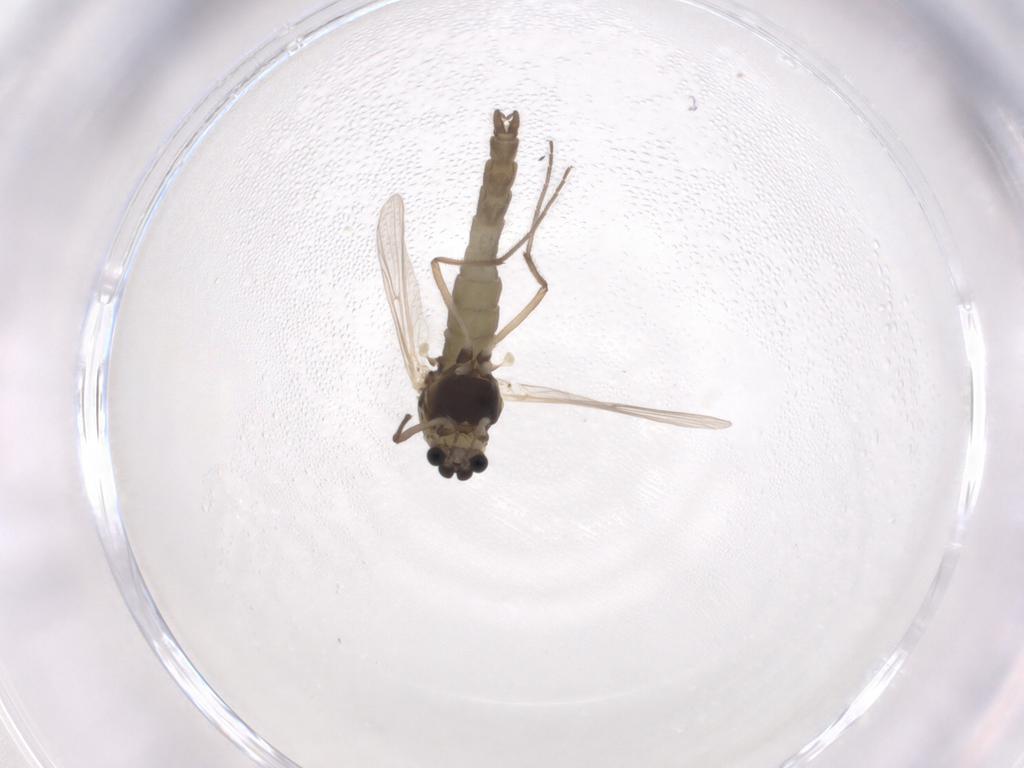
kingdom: Animalia
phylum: Arthropoda
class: Insecta
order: Diptera
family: Chironomidae
